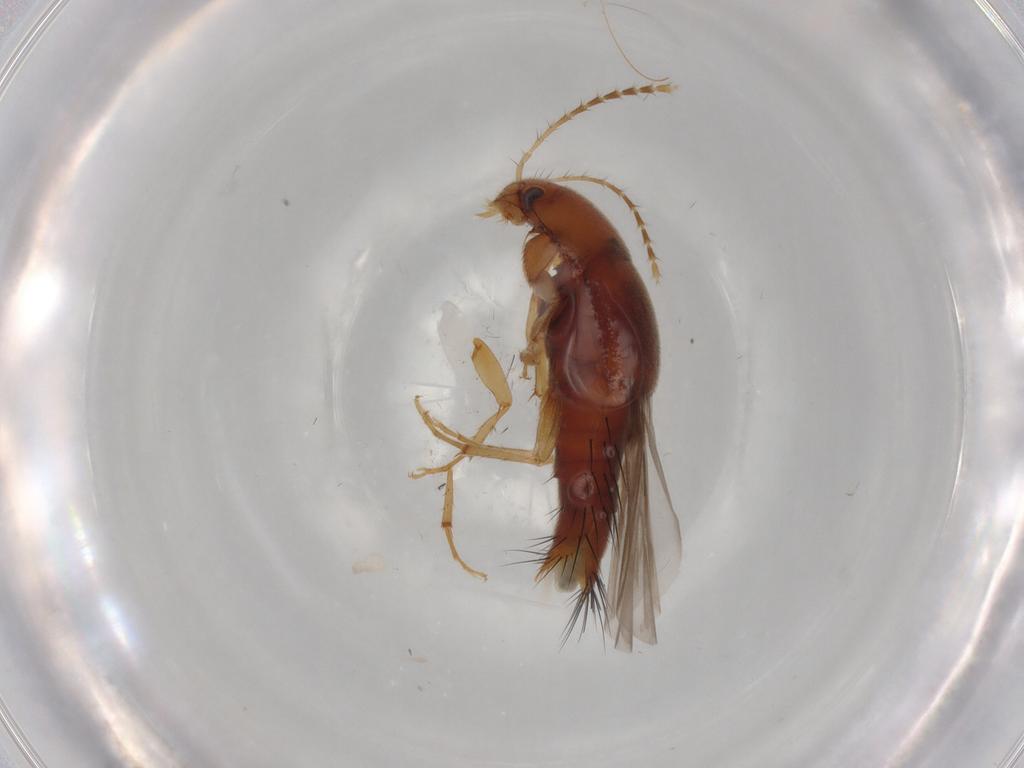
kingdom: Animalia
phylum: Arthropoda
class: Insecta
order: Coleoptera
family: Staphylinidae
